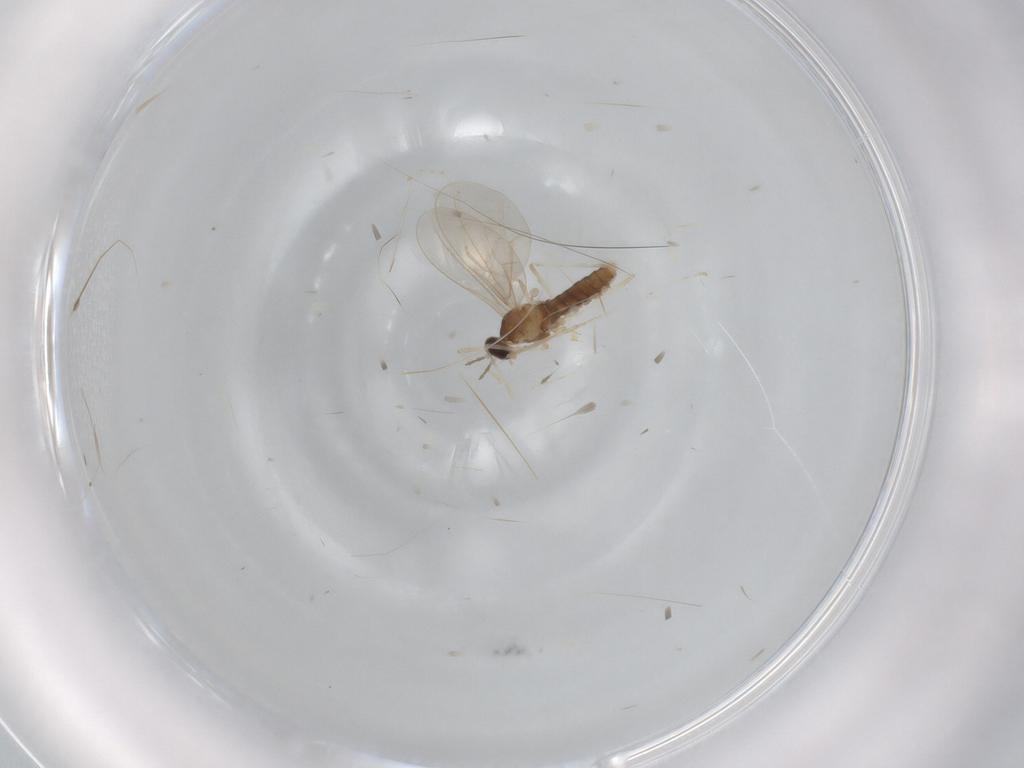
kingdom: Animalia
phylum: Arthropoda
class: Insecta
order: Diptera
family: Cecidomyiidae
